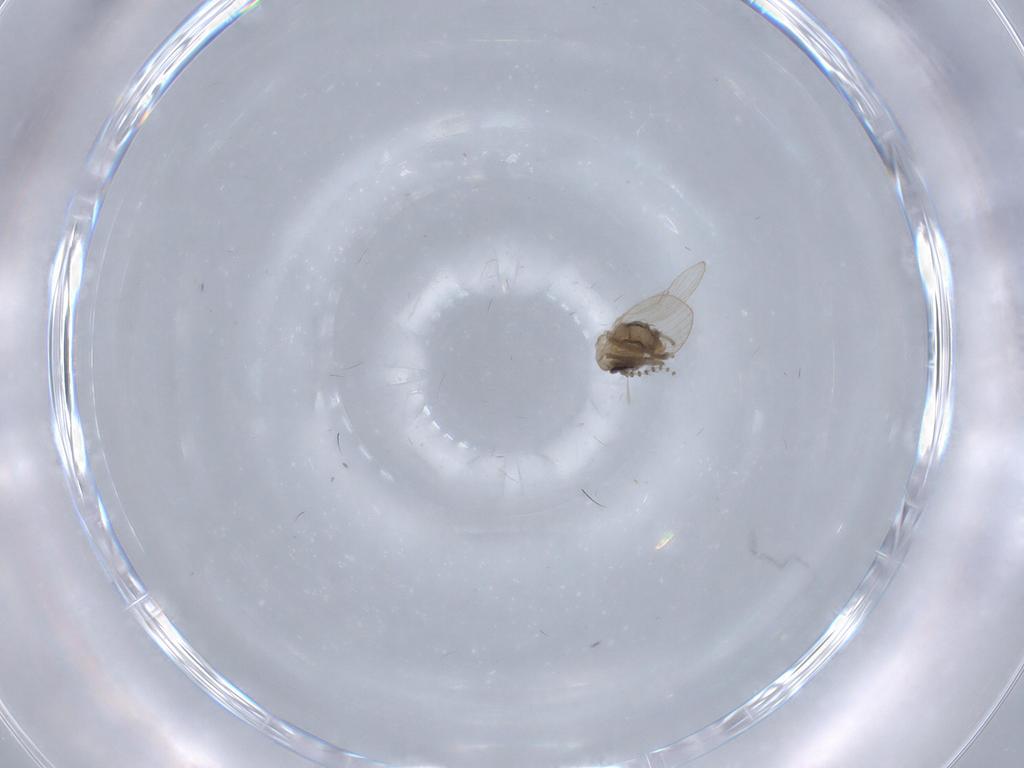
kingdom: Animalia
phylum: Arthropoda
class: Insecta
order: Diptera
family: Psychodidae
